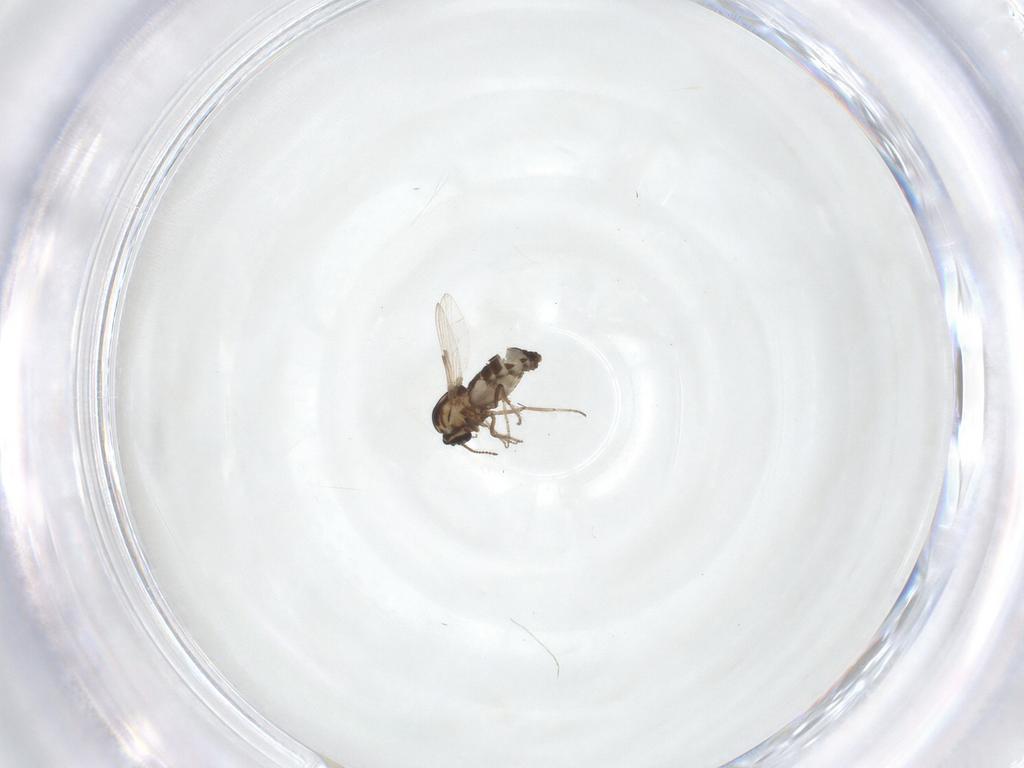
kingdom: Animalia
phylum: Arthropoda
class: Insecta
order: Diptera
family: Ceratopogonidae
